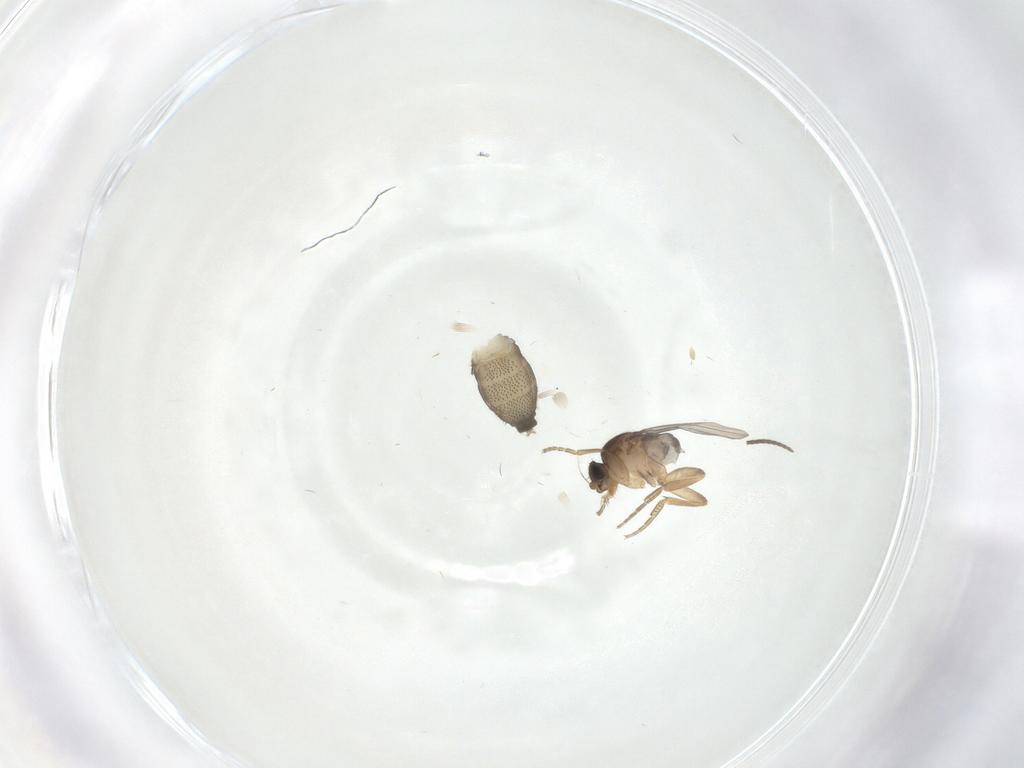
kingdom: Animalia
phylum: Arthropoda
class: Insecta
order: Diptera
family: Phoridae
